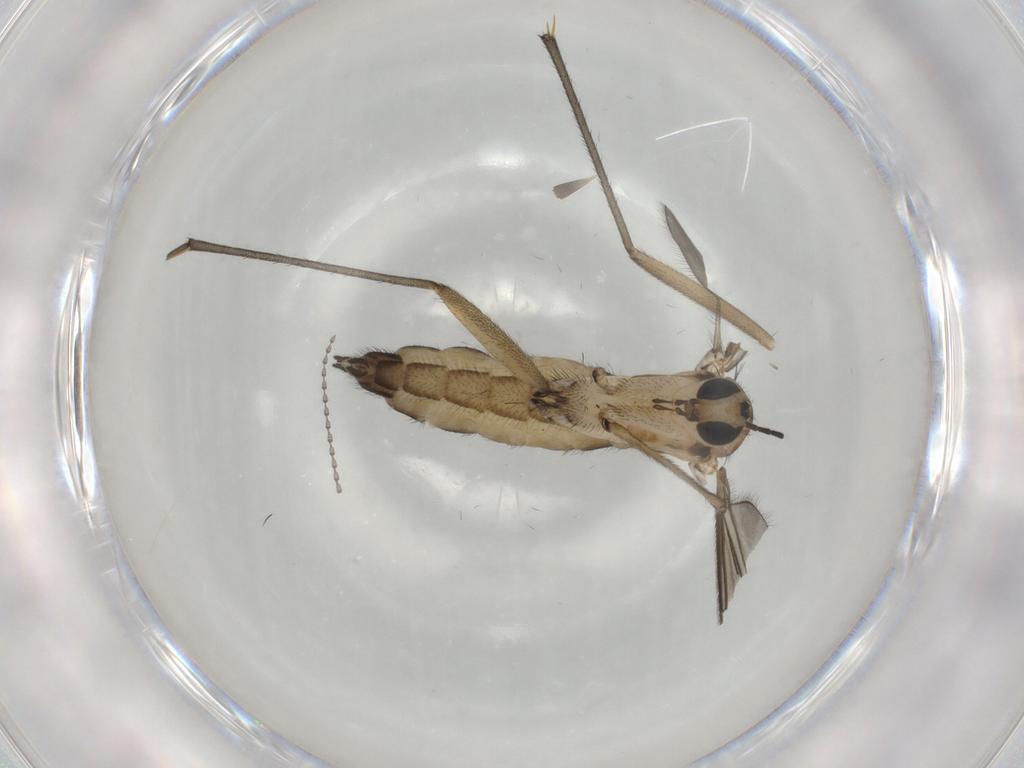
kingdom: Animalia
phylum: Arthropoda
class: Insecta
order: Diptera
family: Sciaridae
